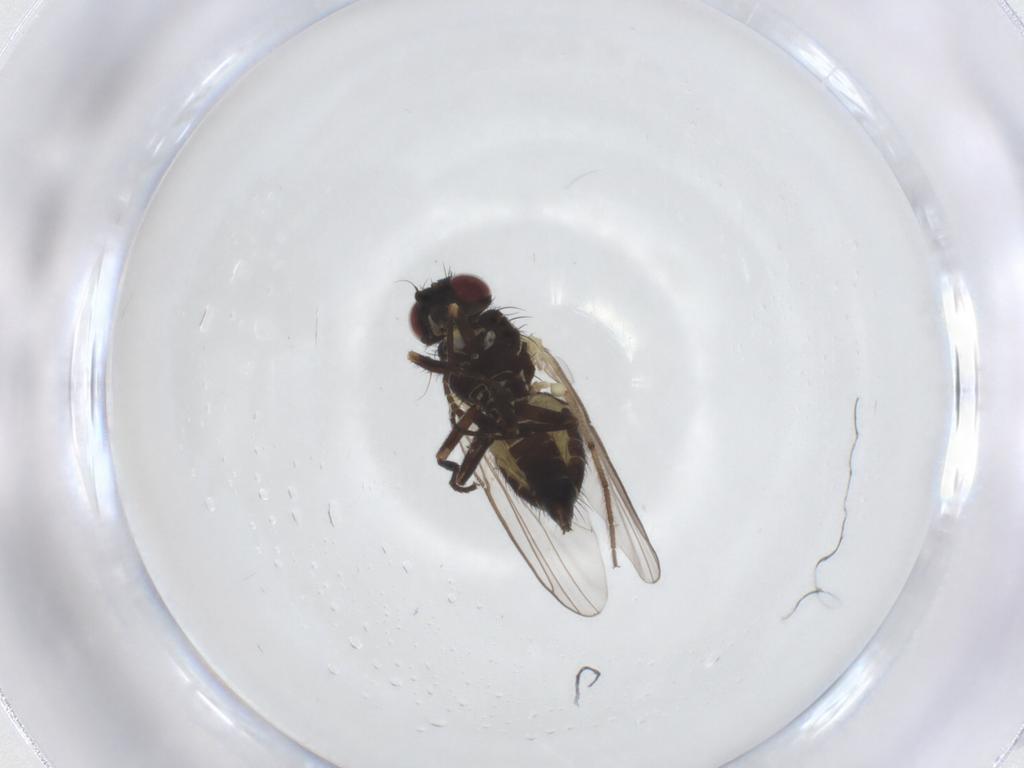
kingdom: Animalia
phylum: Arthropoda
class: Insecta
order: Diptera
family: Agromyzidae
